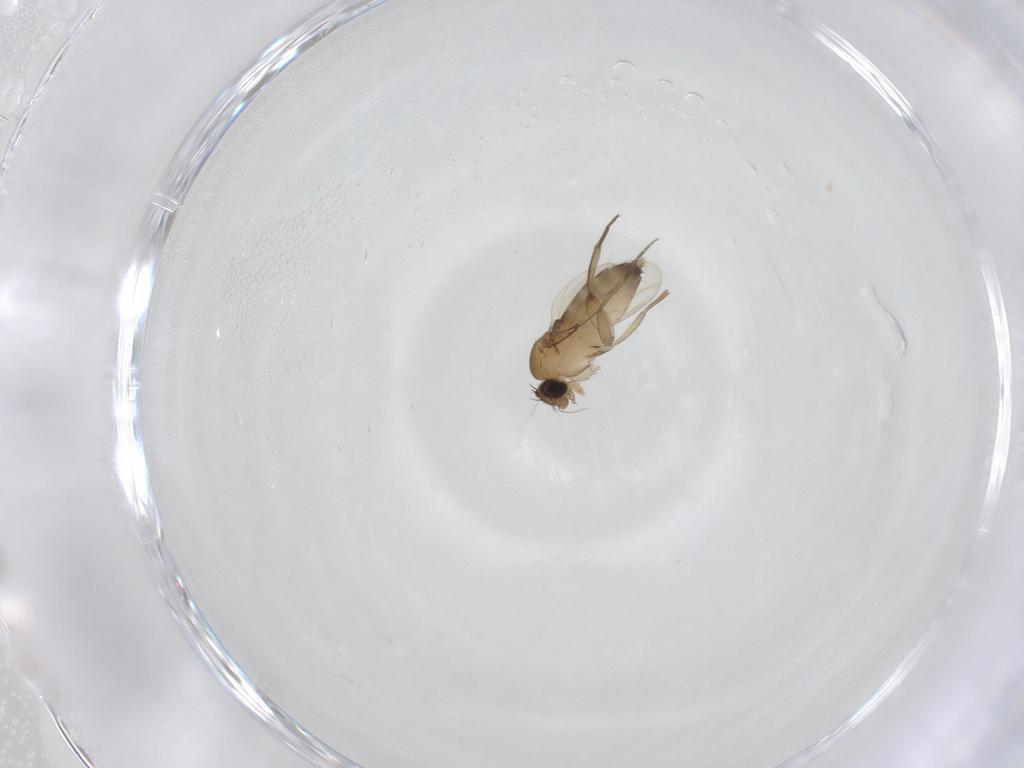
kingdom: Animalia
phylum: Arthropoda
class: Insecta
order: Diptera
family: Phoridae
